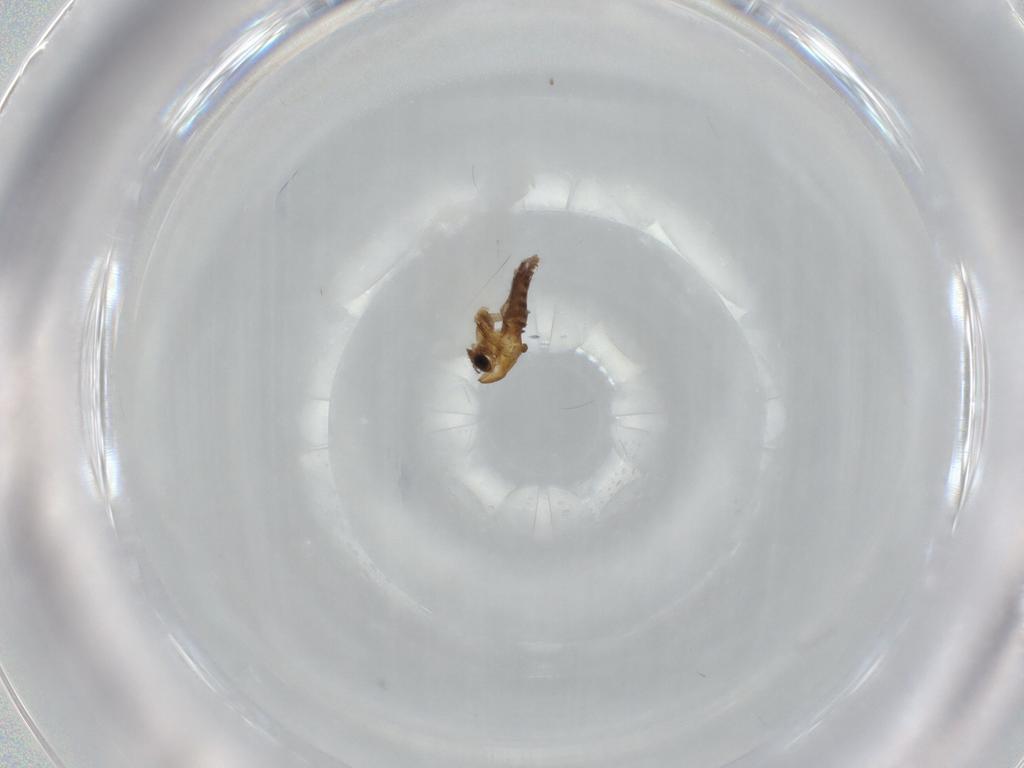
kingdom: Animalia
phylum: Arthropoda
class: Insecta
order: Diptera
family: Chironomidae
